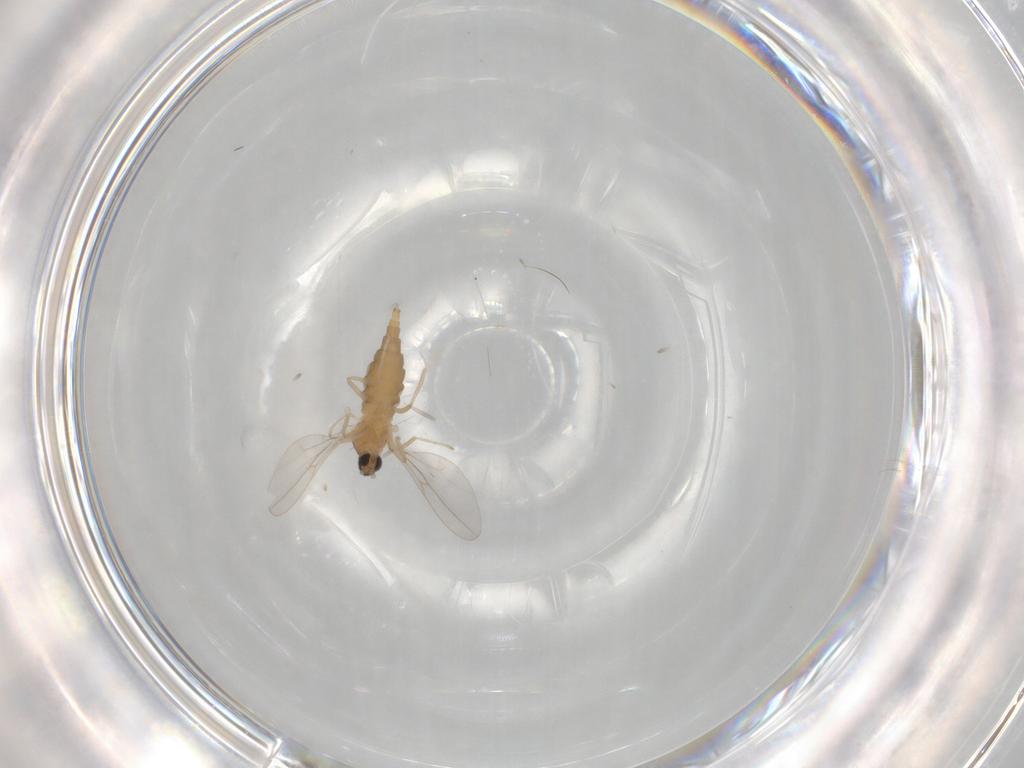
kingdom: Animalia
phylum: Arthropoda
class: Insecta
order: Diptera
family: Cecidomyiidae
